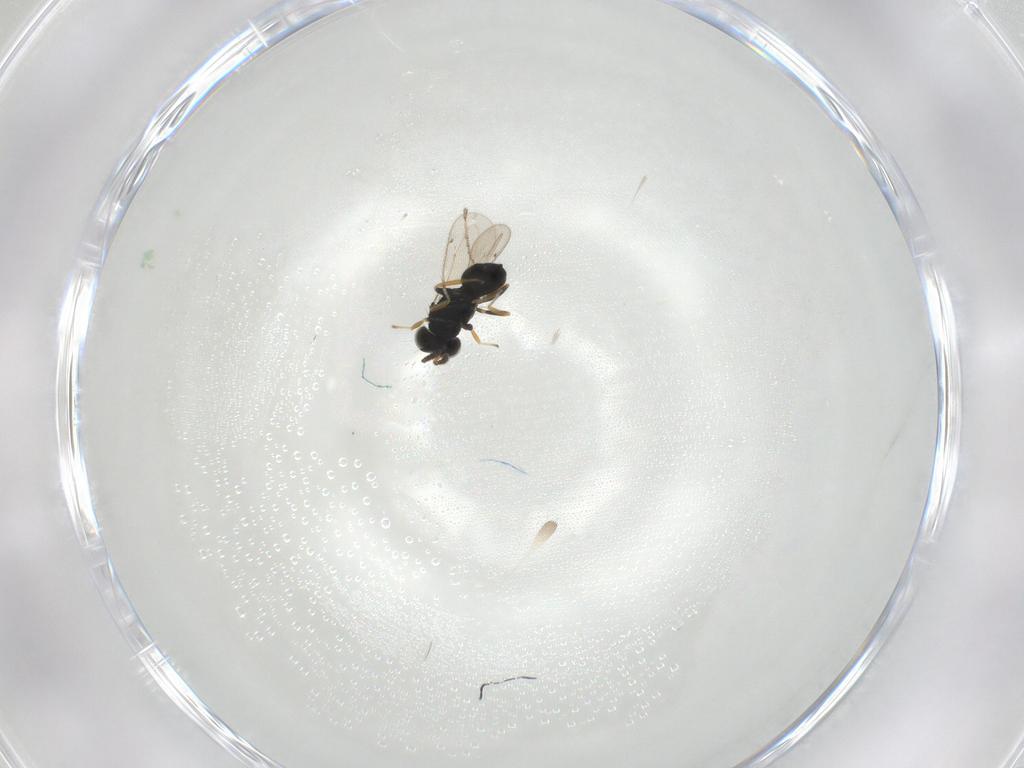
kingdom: Animalia
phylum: Arthropoda
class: Insecta
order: Hymenoptera
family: Eulophidae
